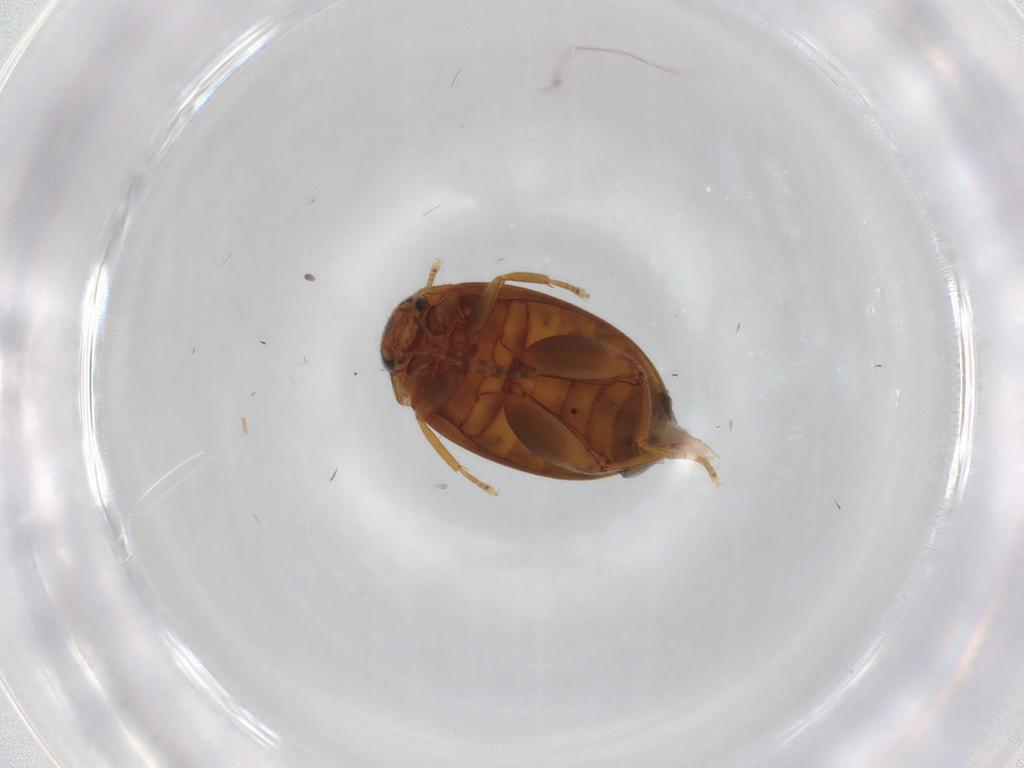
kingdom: Animalia
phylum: Arthropoda
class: Insecta
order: Coleoptera
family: Scirtidae
